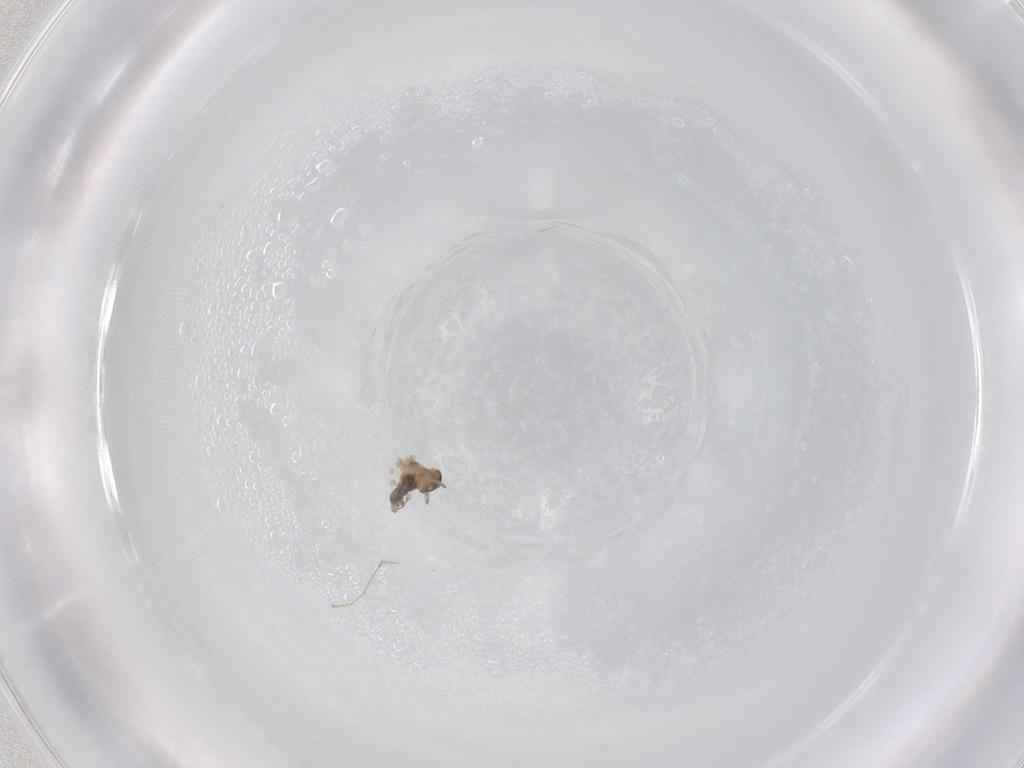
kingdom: Animalia
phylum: Arthropoda
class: Insecta
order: Diptera
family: Cecidomyiidae
